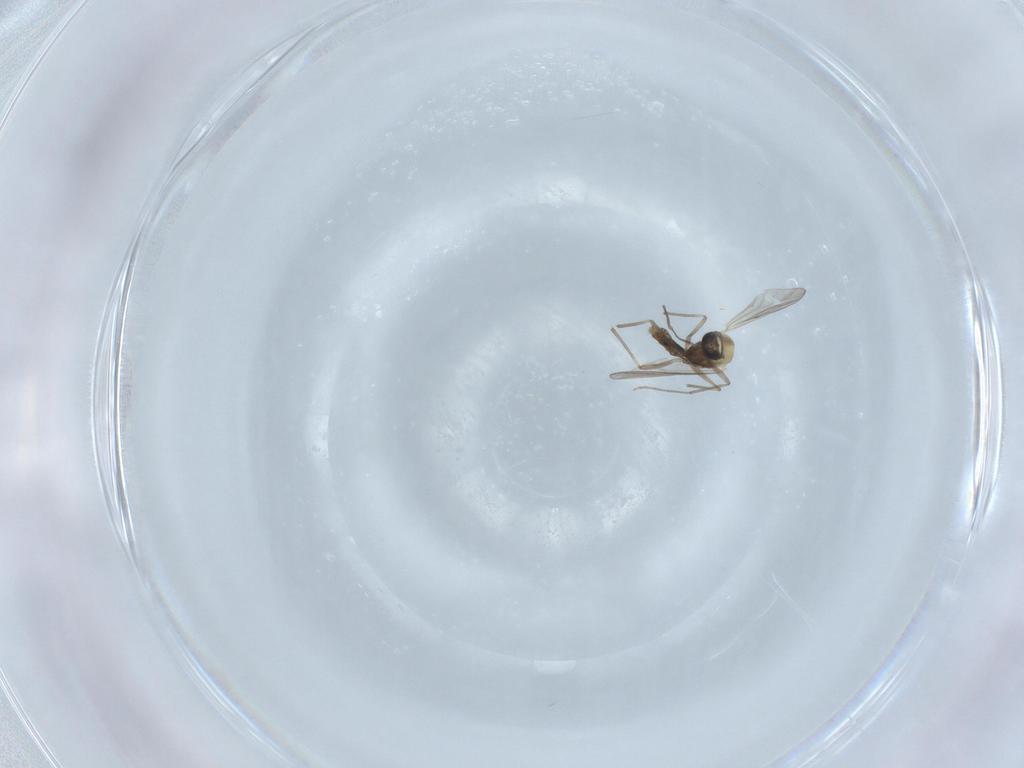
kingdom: Animalia
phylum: Arthropoda
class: Insecta
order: Diptera
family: Chironomidae
